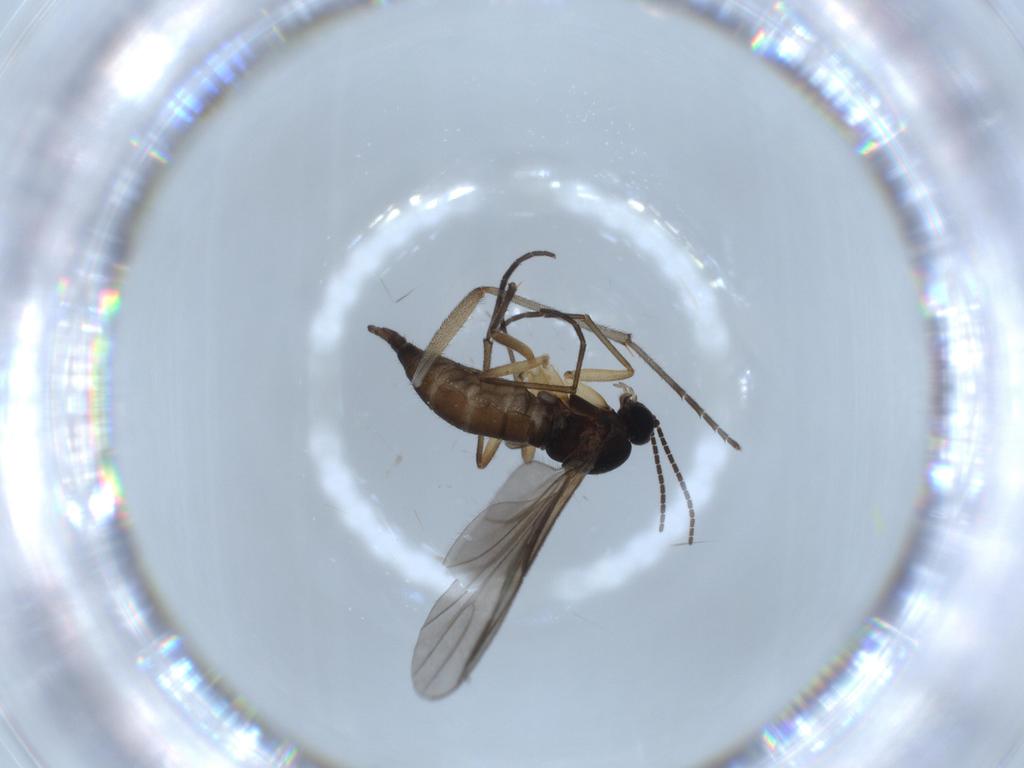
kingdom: Animalia
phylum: Arthropoda
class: Insecta
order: Diptera
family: Sciaridae
